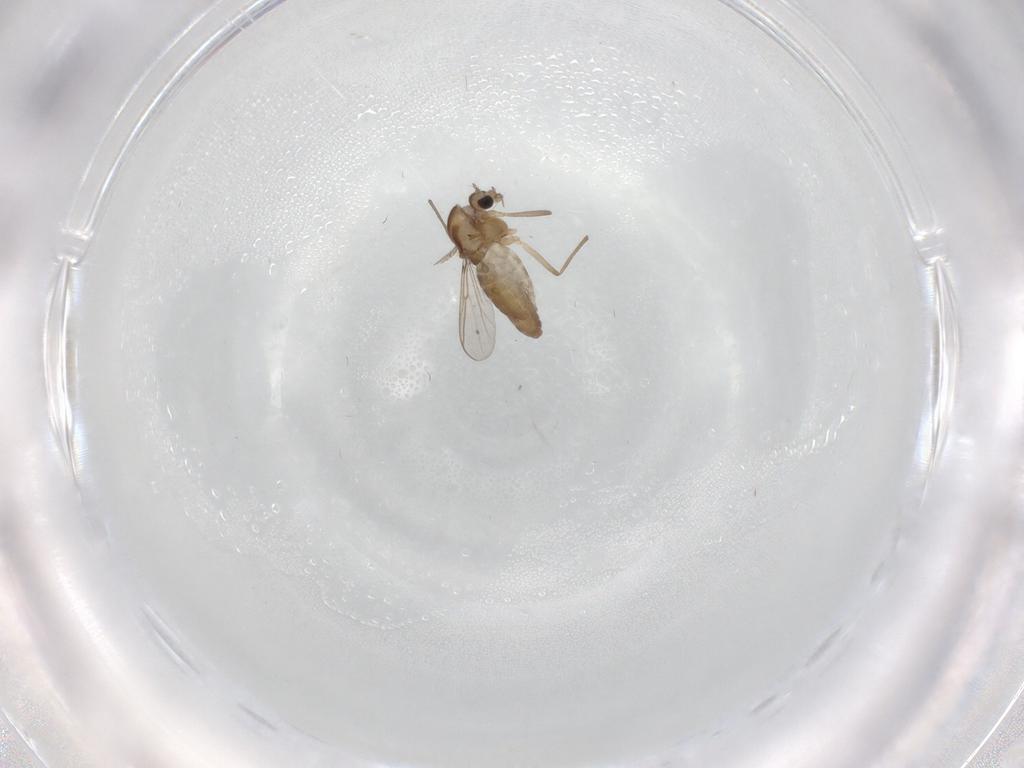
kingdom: Animalia
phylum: Arthropoda
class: Insecta
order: Diptera
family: Chironomidae
